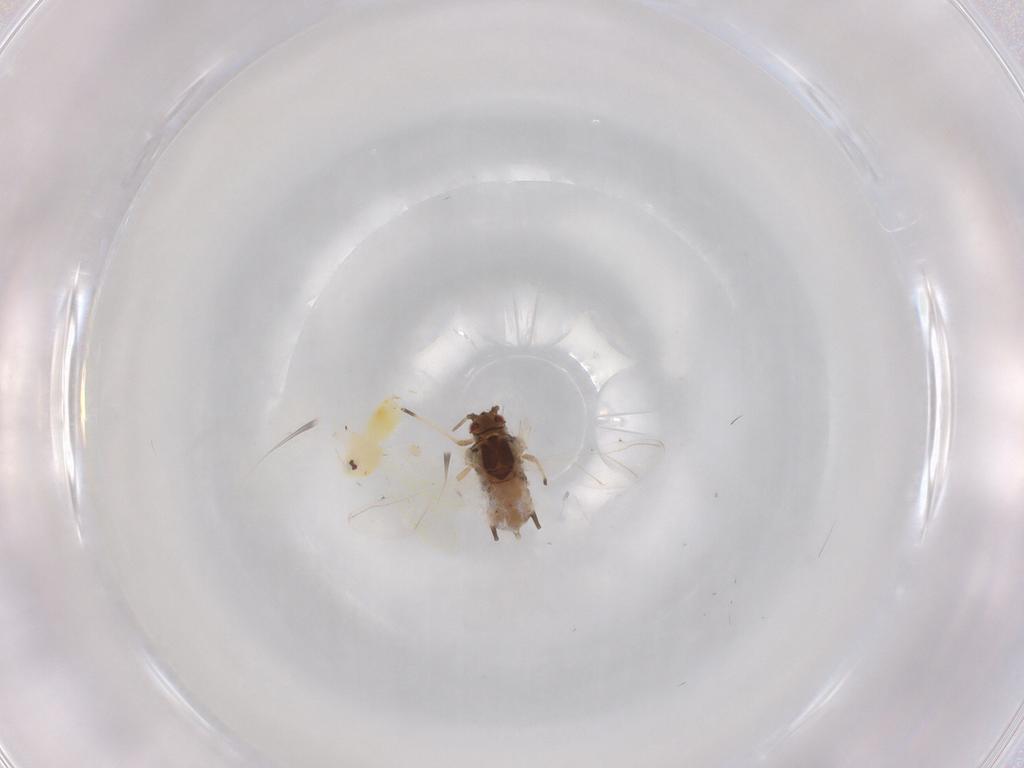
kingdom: Animalia
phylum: Arthropoda
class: Insecta
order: Hemiptera
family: Aphididae
